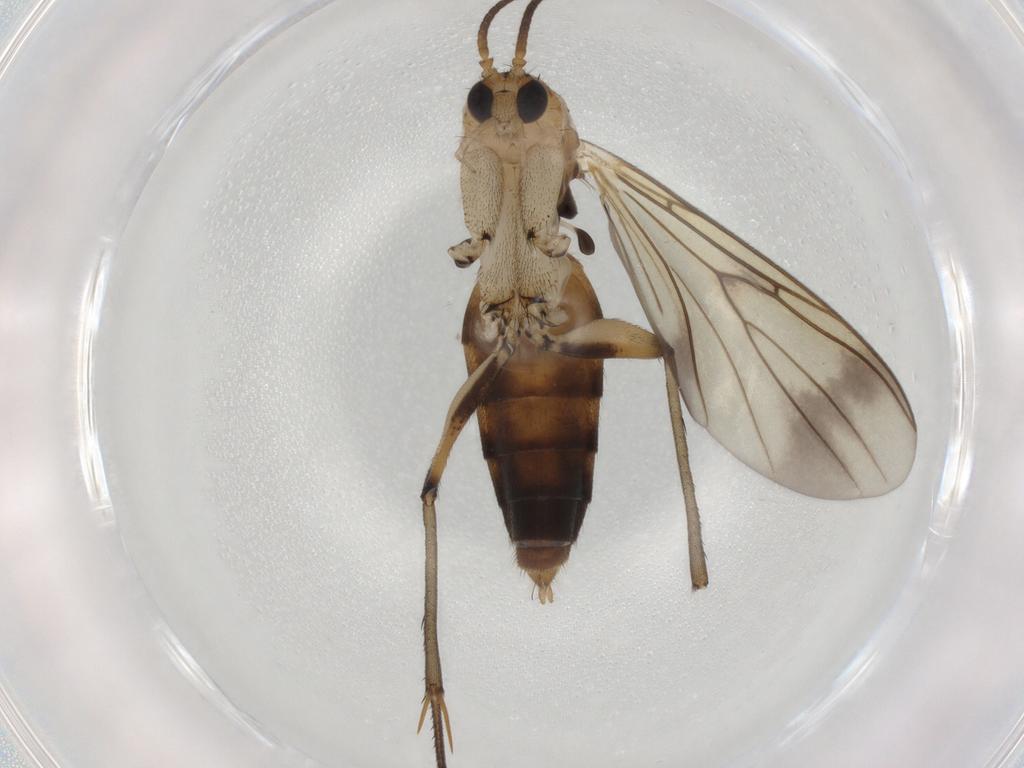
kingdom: Animalia
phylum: Arthropoda
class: Insecta
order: Diptera
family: Mycetophilidae
